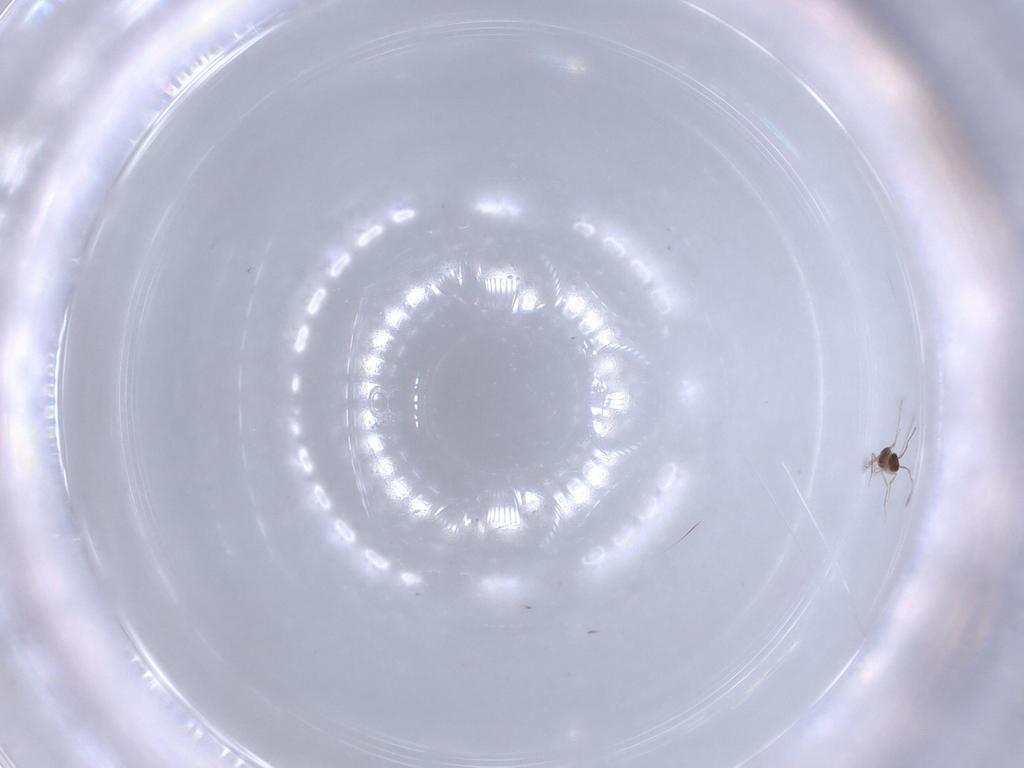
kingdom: Animalia
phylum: Arthropoda
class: Insecta
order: Hymenoptera
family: Mymaridae
